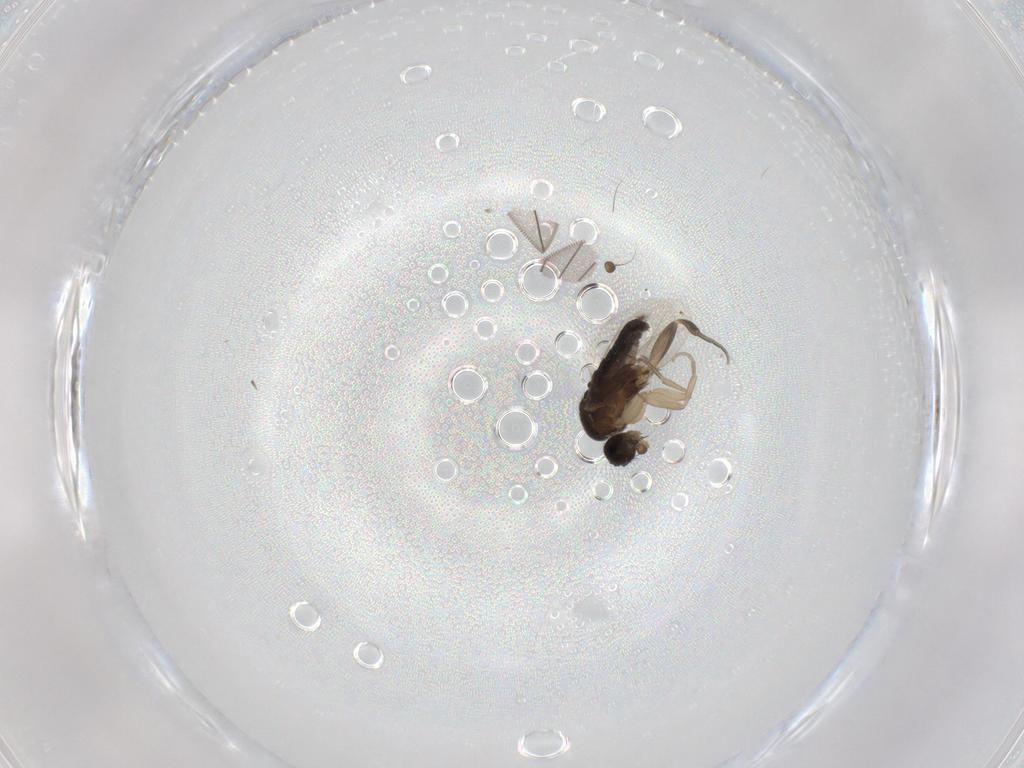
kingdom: Animalia
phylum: Arthropoda
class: Insecta
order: Diptera
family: Phoridae
